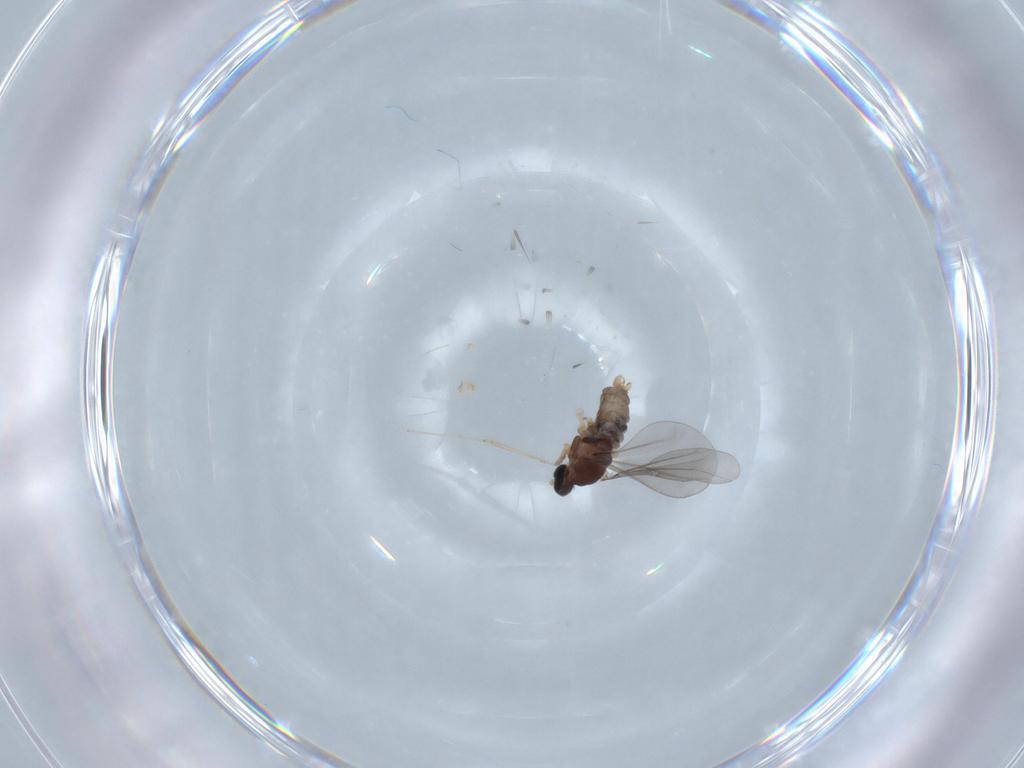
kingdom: Animalia
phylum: Arthropoda
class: Insecta
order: Diptera
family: Cecidomyiidae
